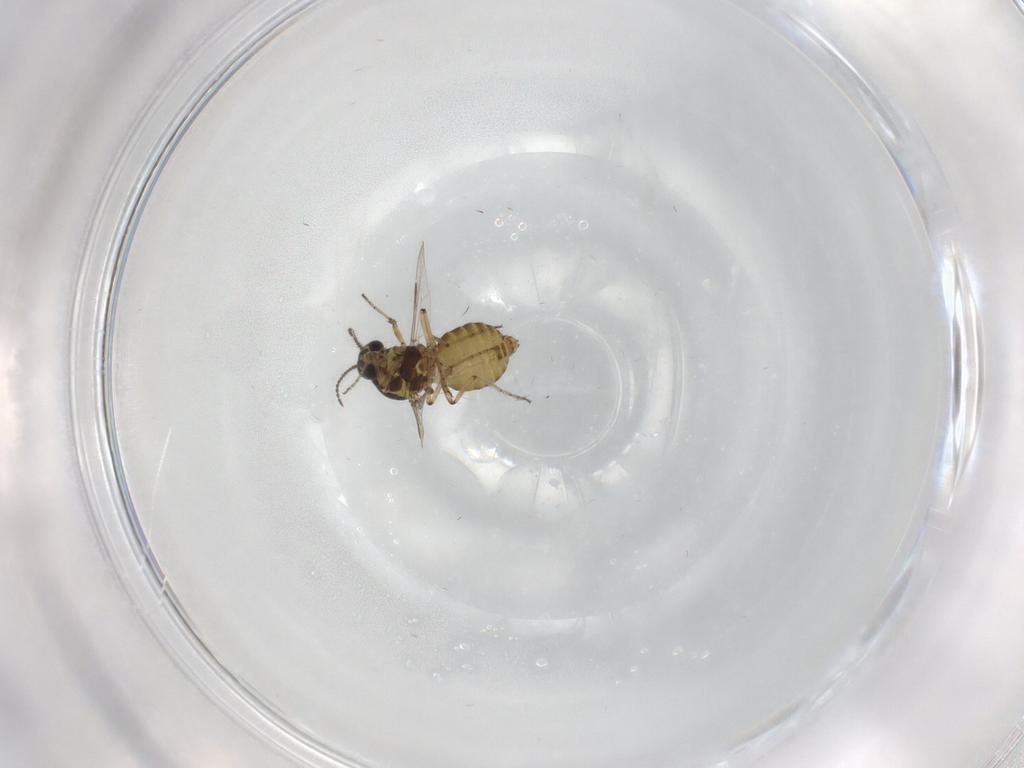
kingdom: Animalia
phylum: Arthropoda
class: Insecta
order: Diptera
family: Ceratopogonidae
